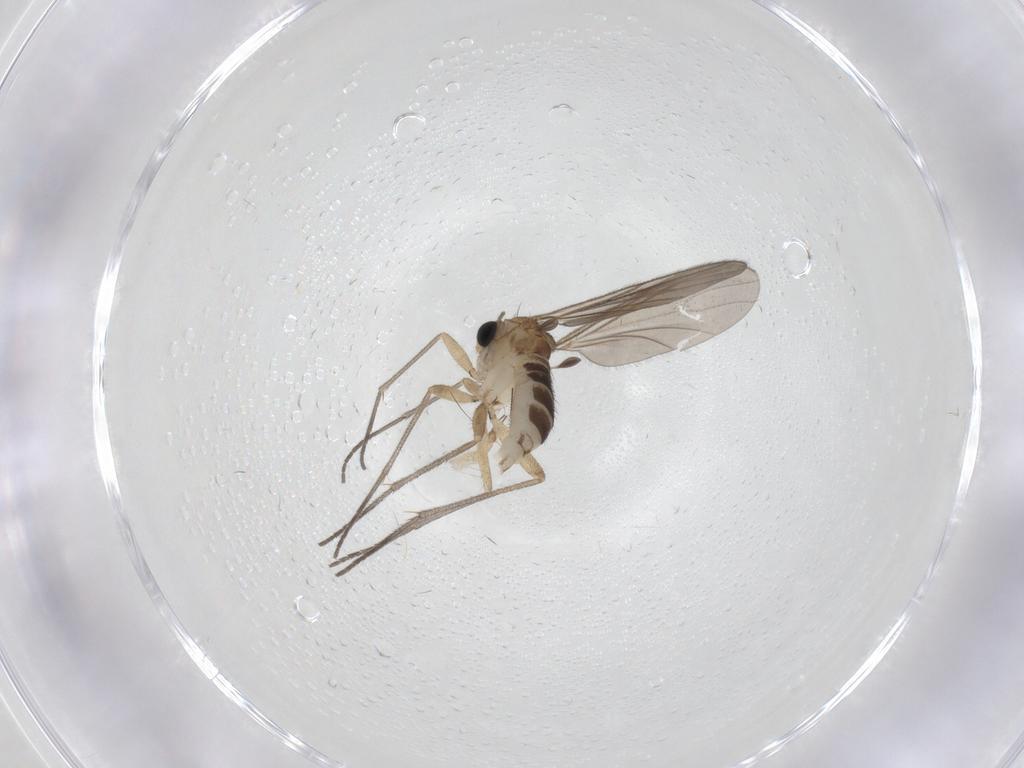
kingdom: Animalia
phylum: Arthropoda
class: Insecta
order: Diptera
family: Sciaridae
